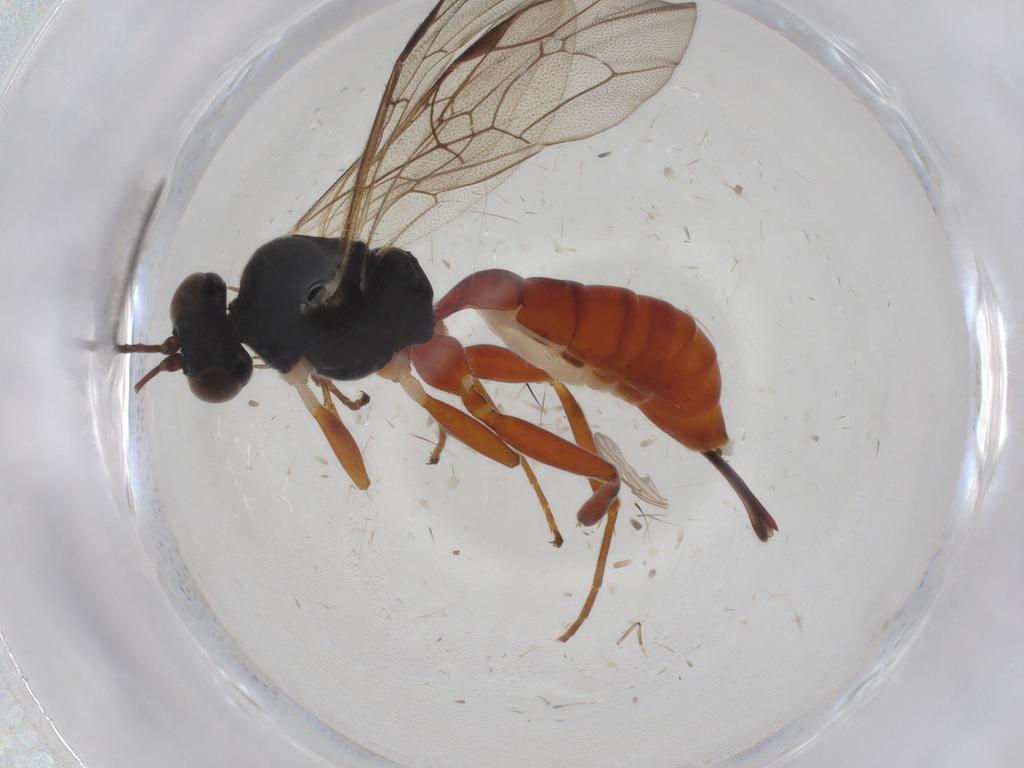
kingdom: Animalia
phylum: Arthropoda
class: Insecta
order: Hymenoptera
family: Ichneumonidae
